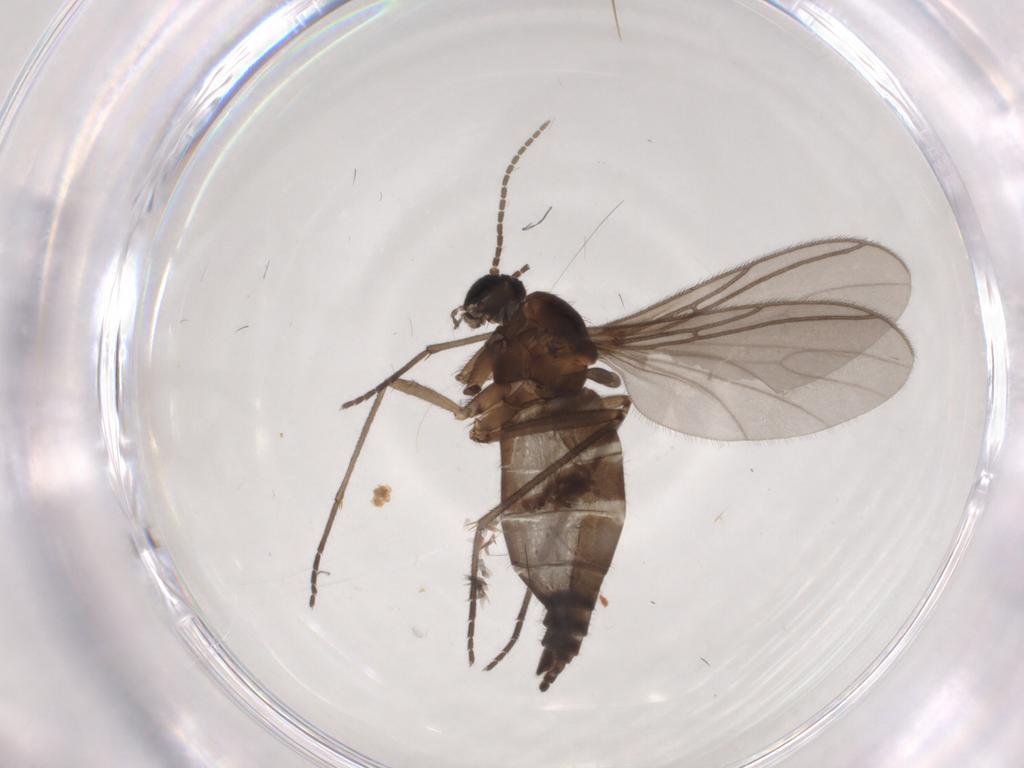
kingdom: Animalia
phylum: Arthropoda
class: Insecta
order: Diptera
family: Sciaridae
